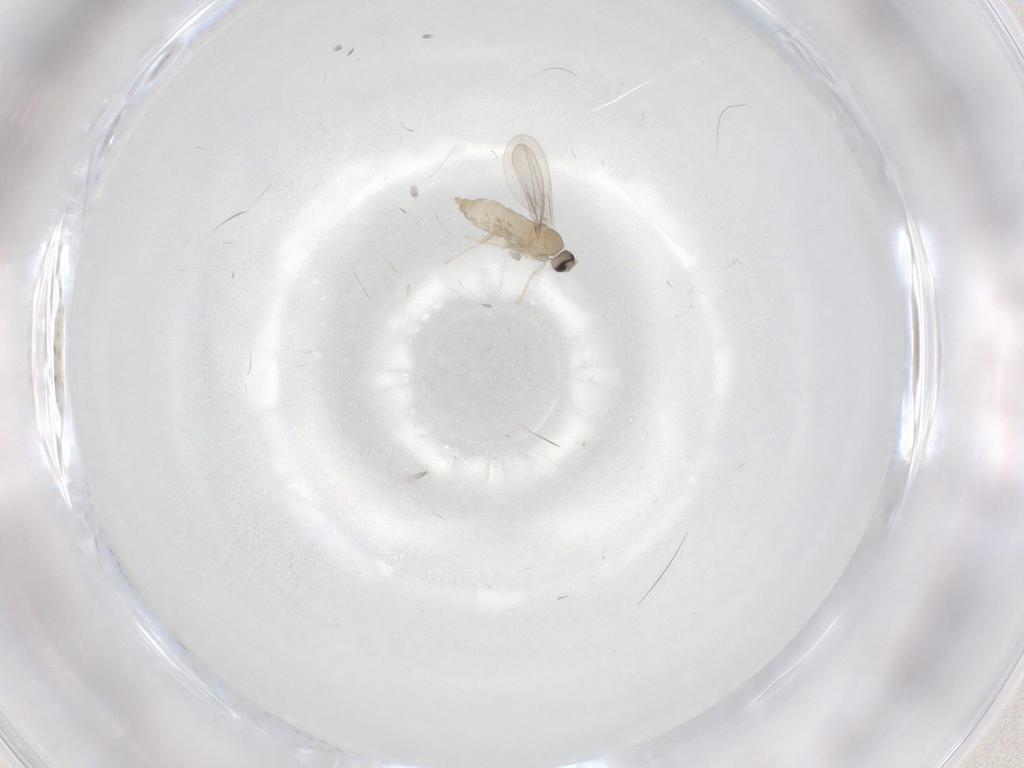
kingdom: Animalia
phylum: Arthropoda
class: Insecta
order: Diptera
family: Cecidomyiidae
